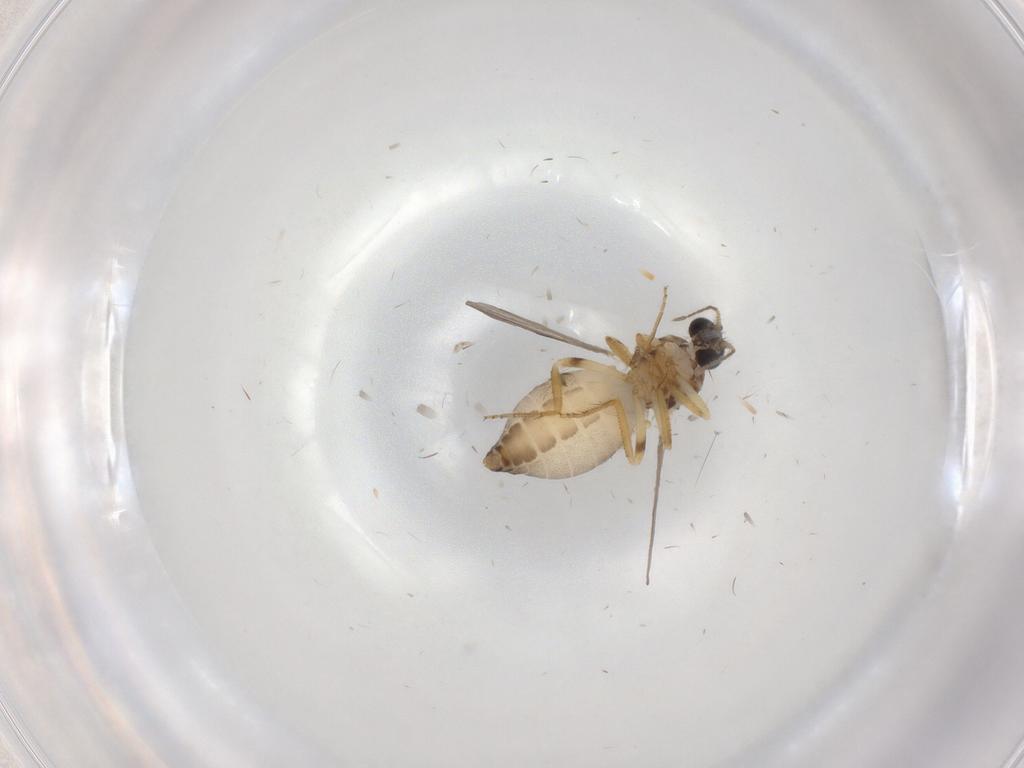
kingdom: Animalia
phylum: Arthropoda
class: Insecta
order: Diptera
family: Ceratopogonidae
